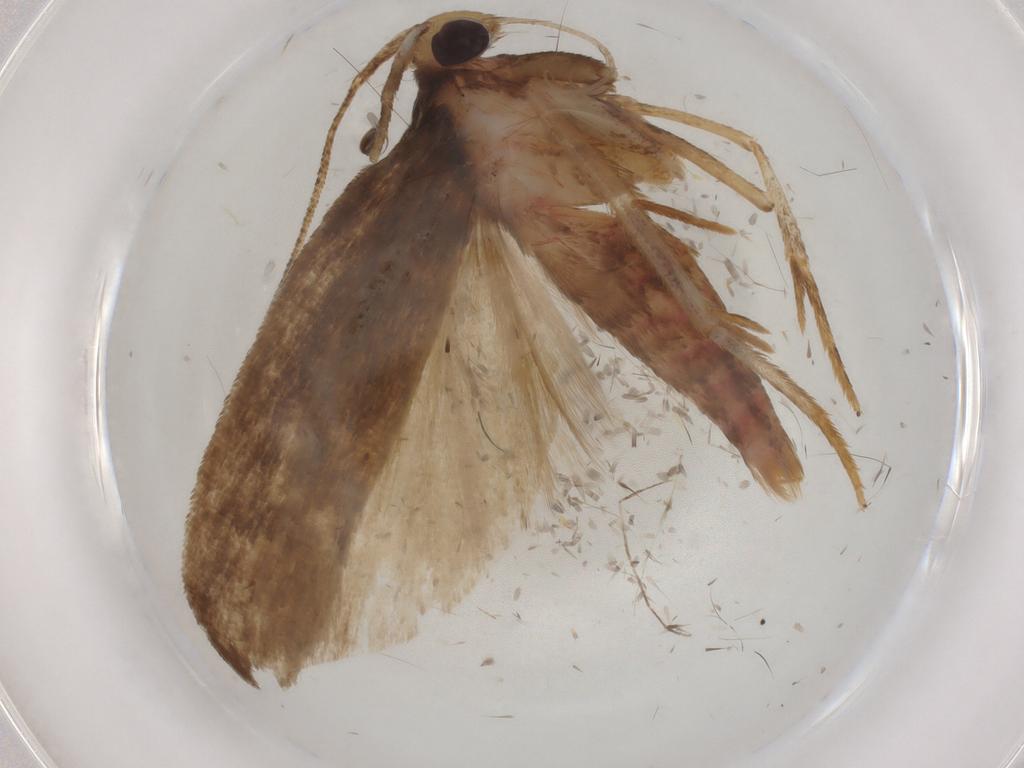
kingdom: Animalia
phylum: Arthropoda
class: Insecta
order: Lepidoptera
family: Autostichidae
